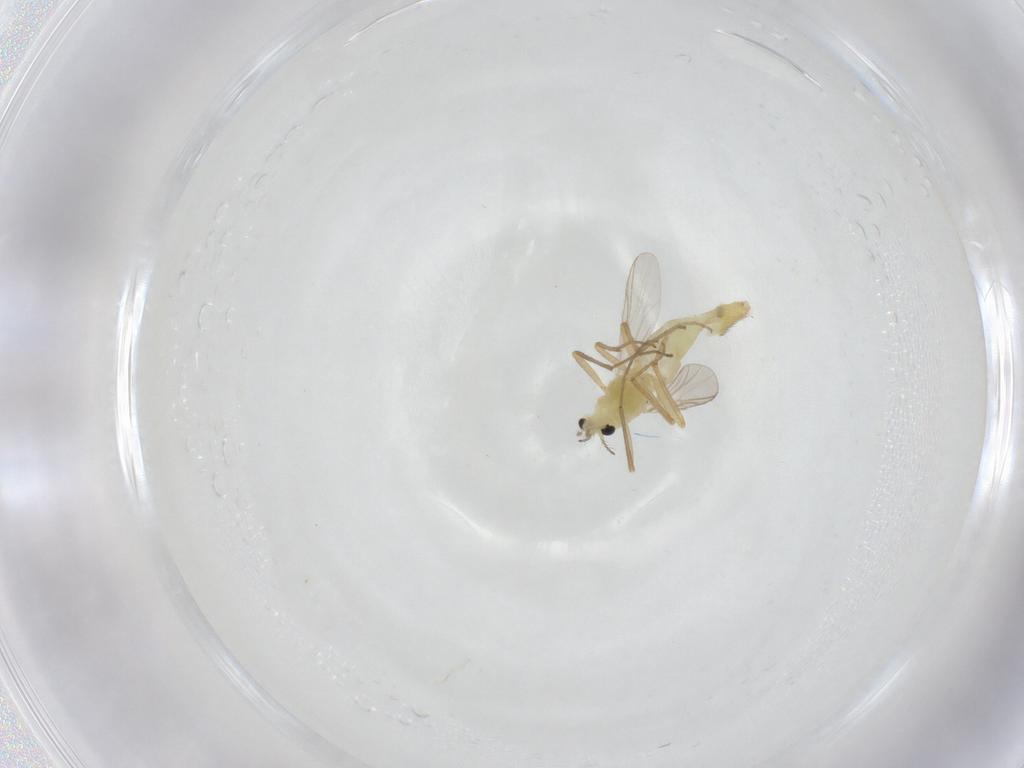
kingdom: Animalia
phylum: Arthropoda
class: Insecta
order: Diptera
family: Chironomidae
